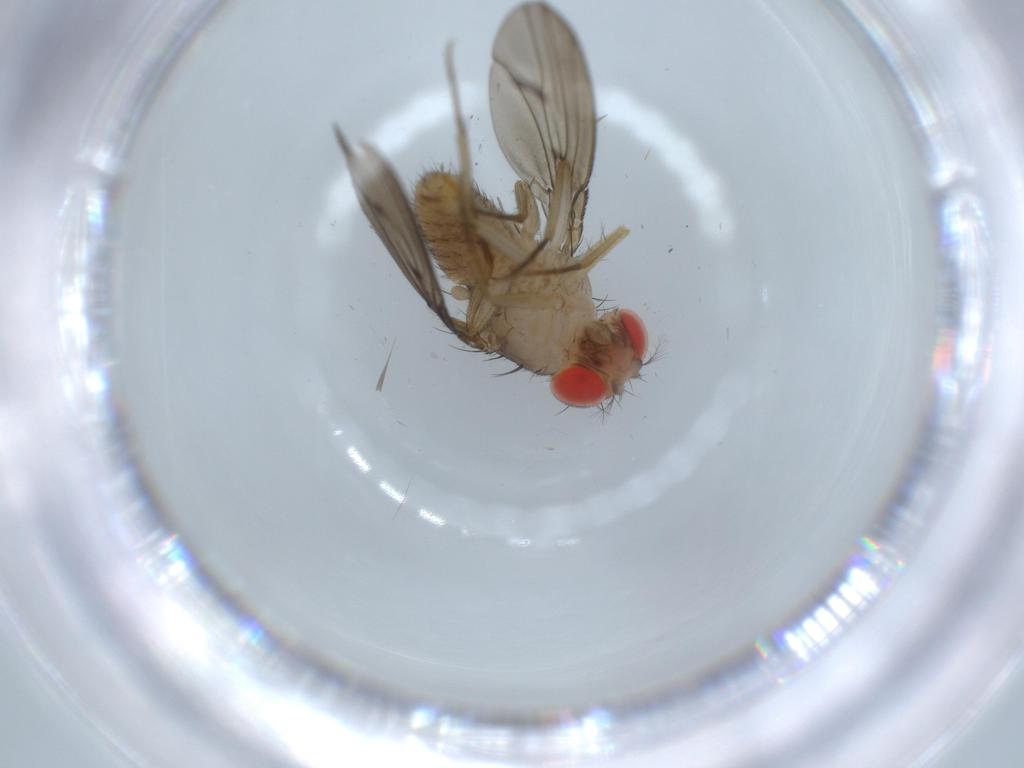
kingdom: Animalia
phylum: Arthropoda
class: Insecta
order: Diptera
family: Drosophilidae
